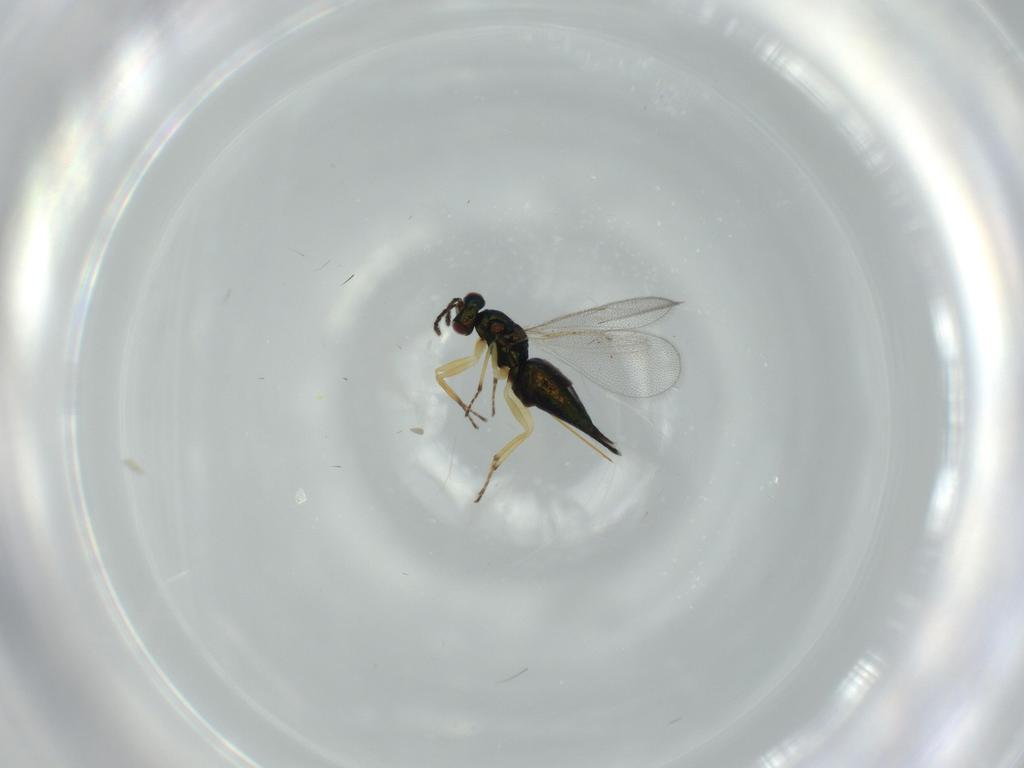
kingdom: Animalia
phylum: Arthropoda
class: Insecta
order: Hymenoptera
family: Eulophidae
